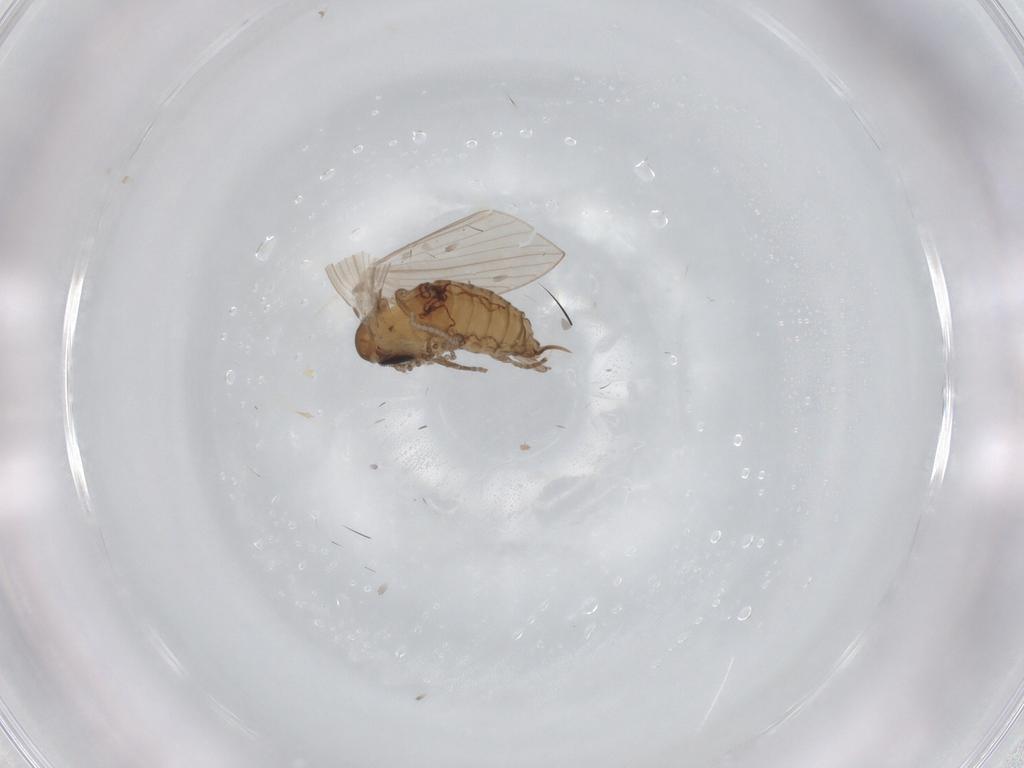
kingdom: Animalia
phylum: Arthropoda
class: Insecta
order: Diptera
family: Psychodidae
